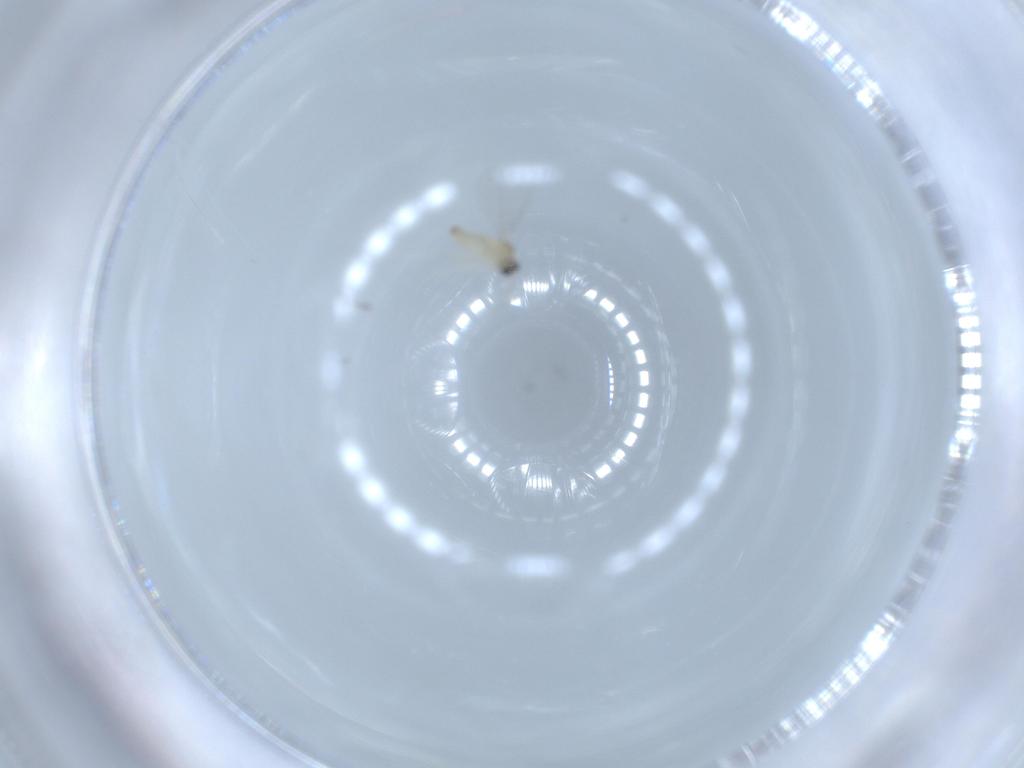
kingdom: Animalia
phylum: Arthropoda
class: Insecta
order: Diptera
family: Cecidomyiidae
